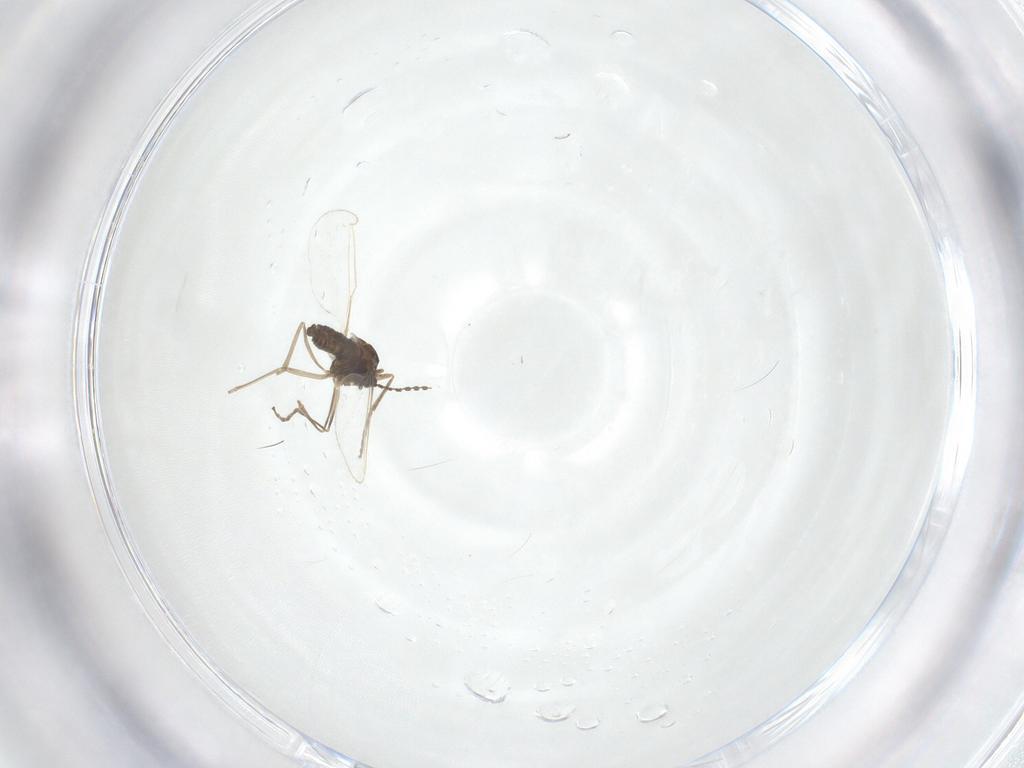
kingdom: Animalia
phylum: Arthropoda
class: Insecta
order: Diptera
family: Cecidomyiidae
